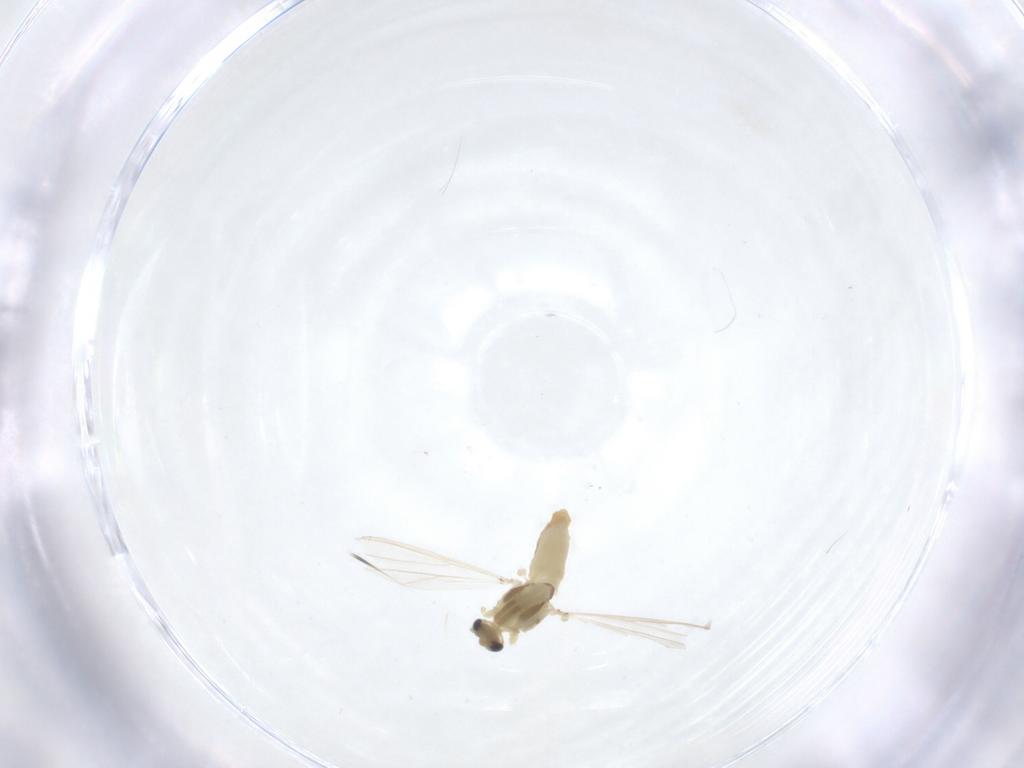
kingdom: Animalia
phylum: Arthropoda
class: Insecta
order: Diptera
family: Chironomidae
